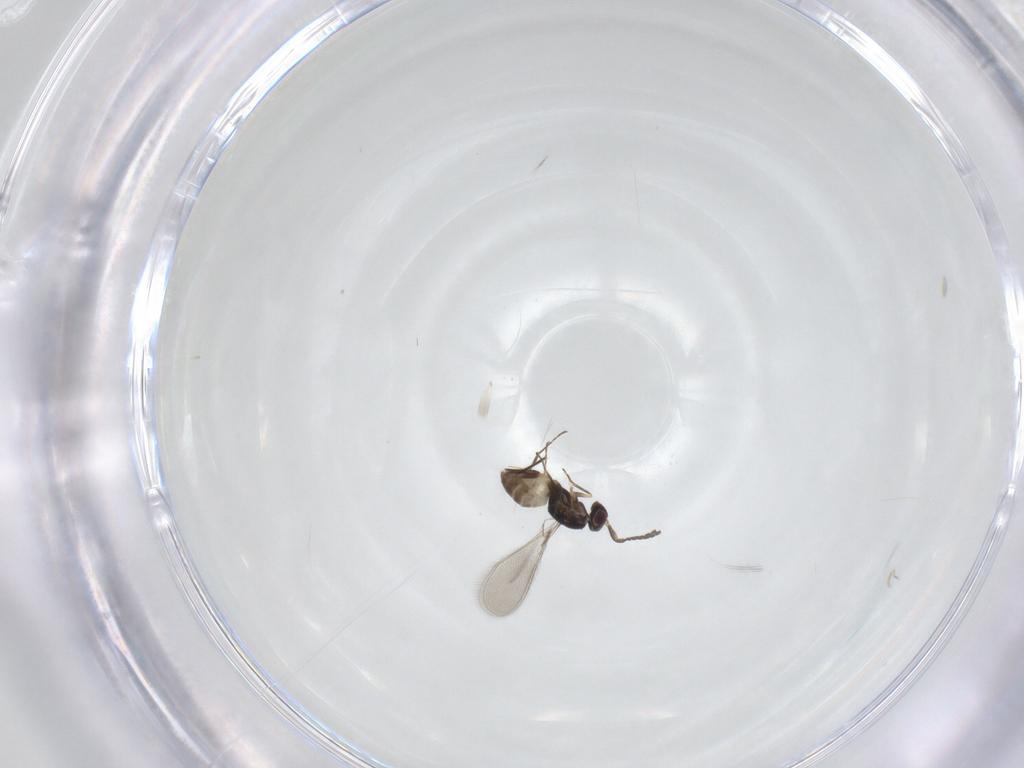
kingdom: Animalia
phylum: Arthropoda
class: Insecta
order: Hymenoptera
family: Mymaridae
